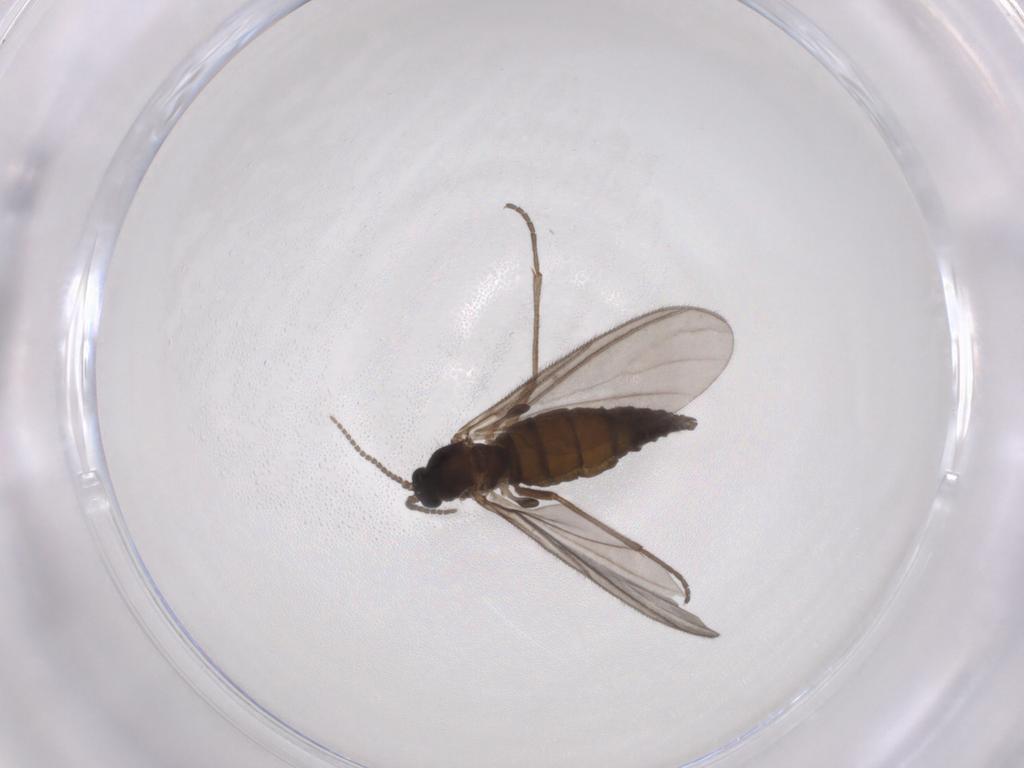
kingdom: Animalia
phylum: Arthropoda
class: Insecta
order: Diptera
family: Sciaridae
